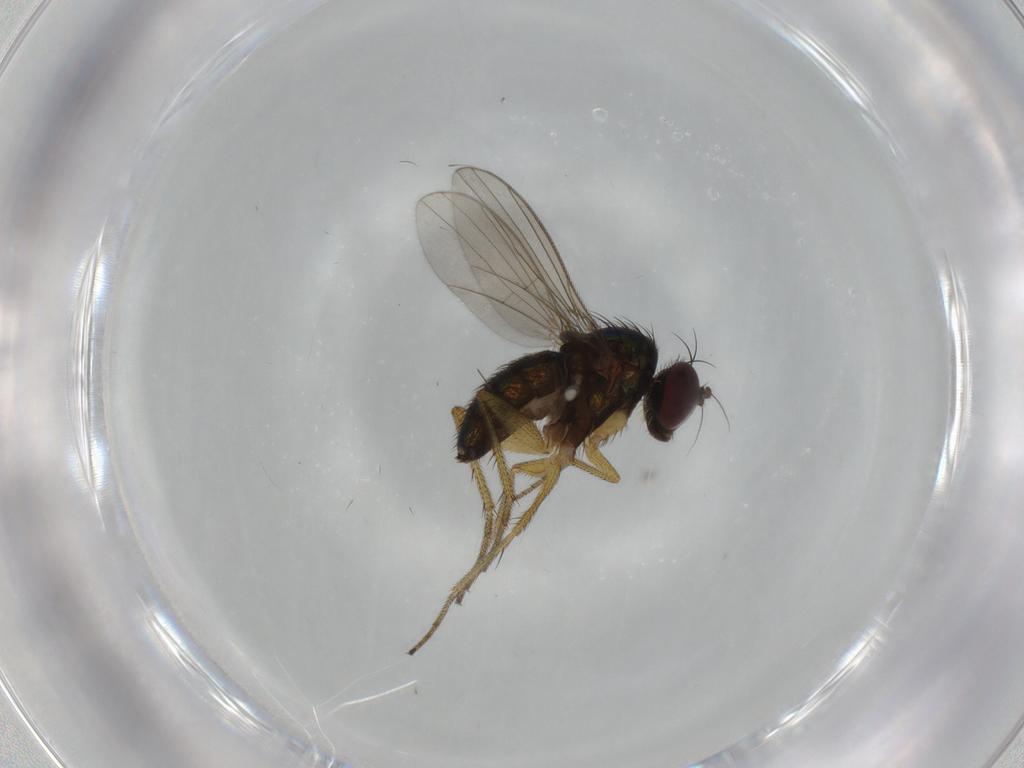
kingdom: Animalia
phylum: Arthropoda
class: Insecta
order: Diptera
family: Dolichopodidae
